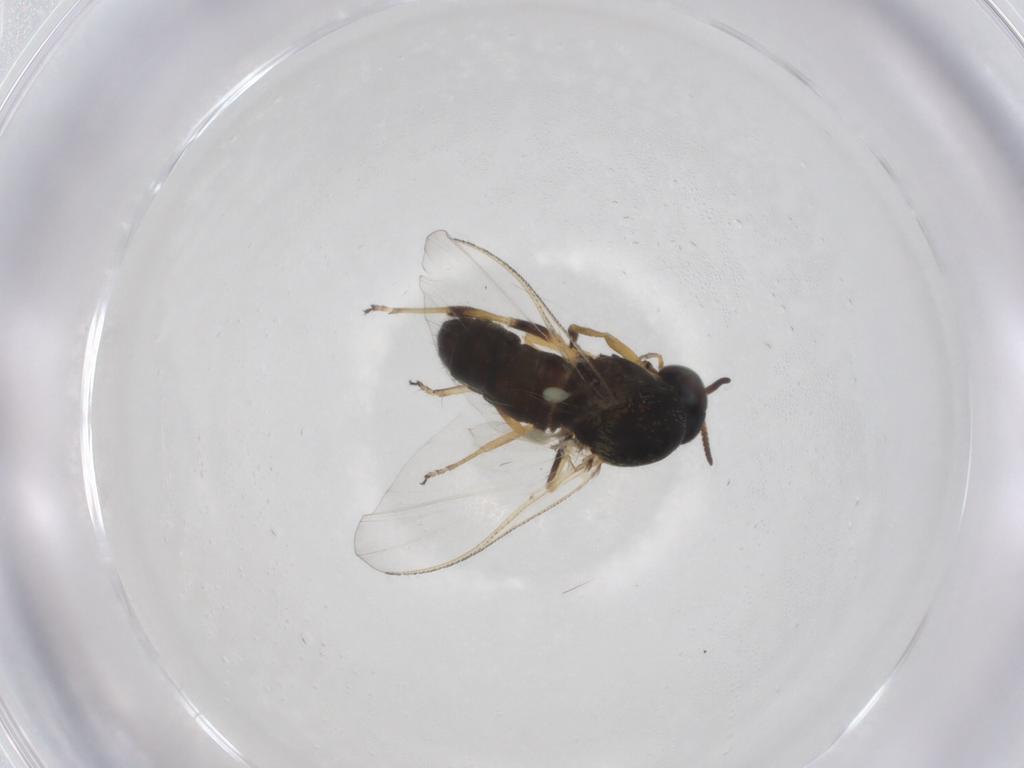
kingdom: Animalia
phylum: Arthropoda
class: Insecta
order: Diptera
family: Simuliidae
